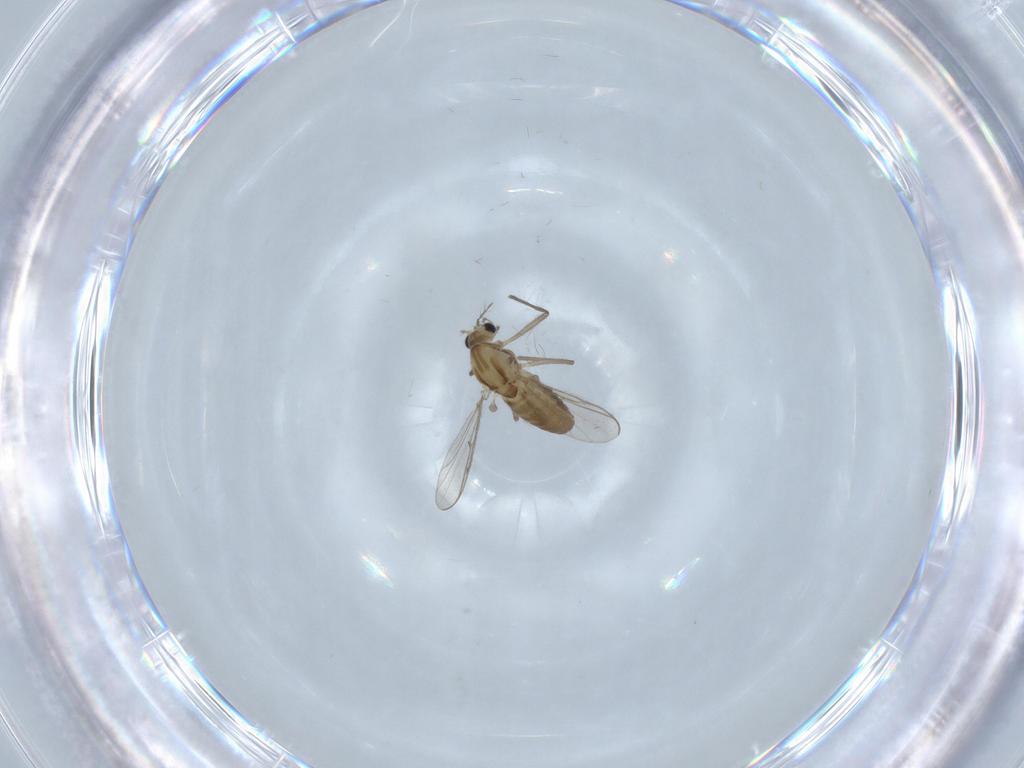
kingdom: Animalia
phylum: Arthropoda
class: Insecta
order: Diptera
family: Chironomidae
